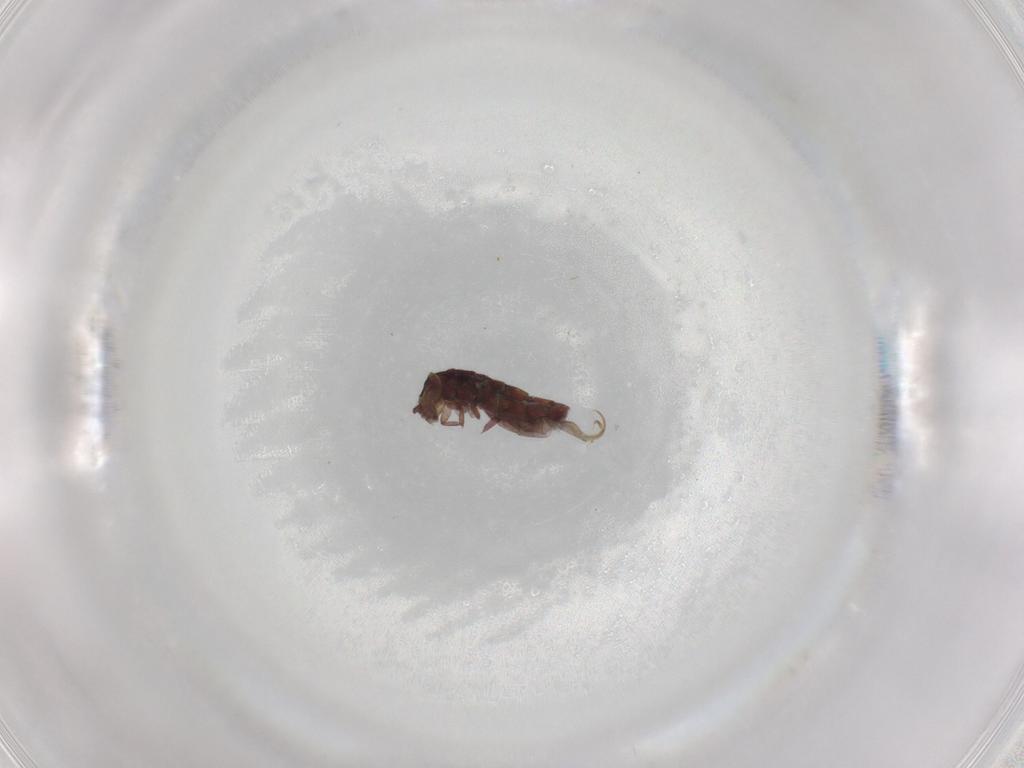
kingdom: Animalia
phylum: Arthropoda
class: Collembola
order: Entomobryomorpha
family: Isotomidae
